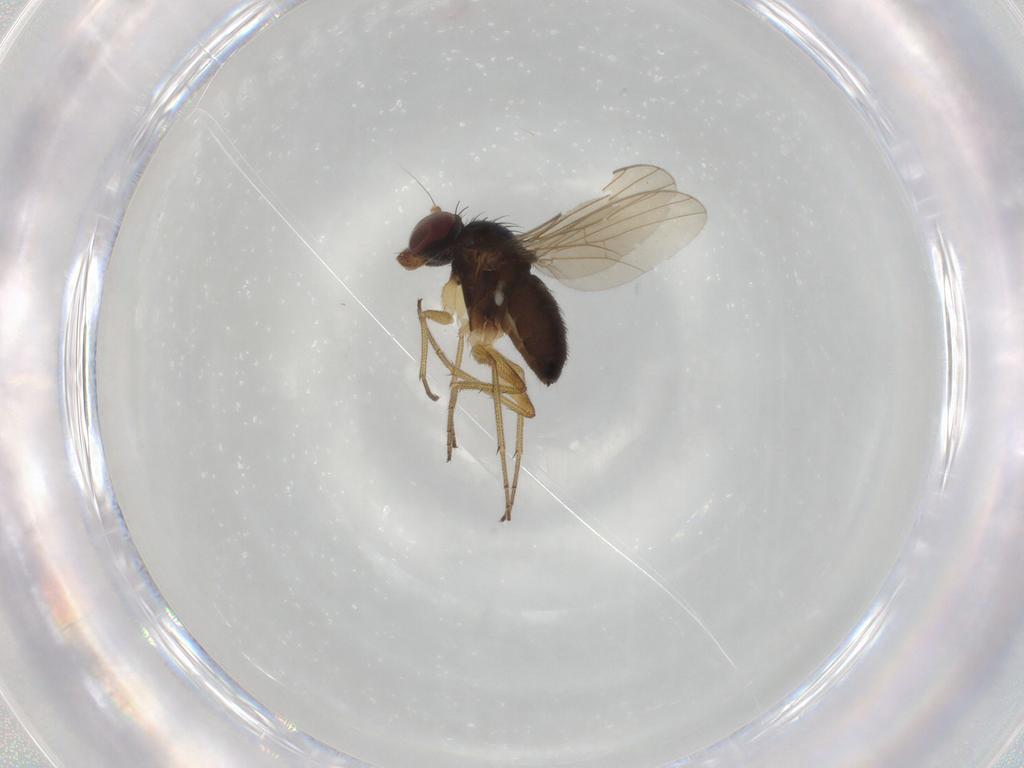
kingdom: Animalia
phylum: Arthropoda
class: Insecta
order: Diptera
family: Dolichopodidae
